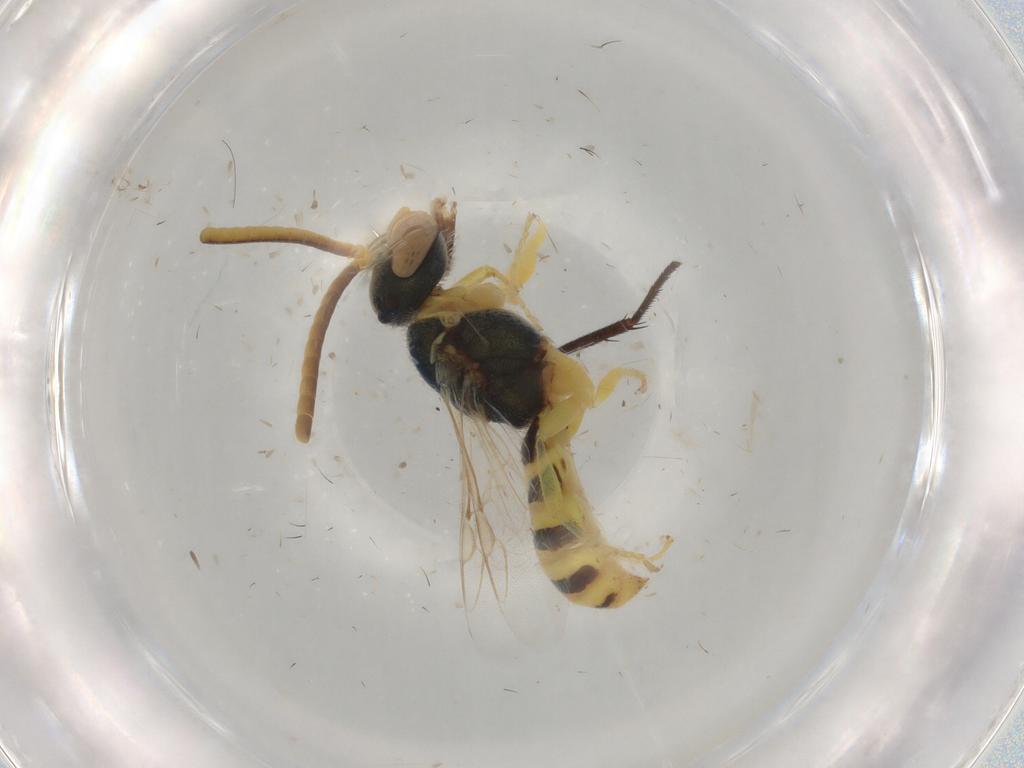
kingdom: Animalia
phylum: Arthropoda
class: Insecta
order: Hymenoptera
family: Halictidae
